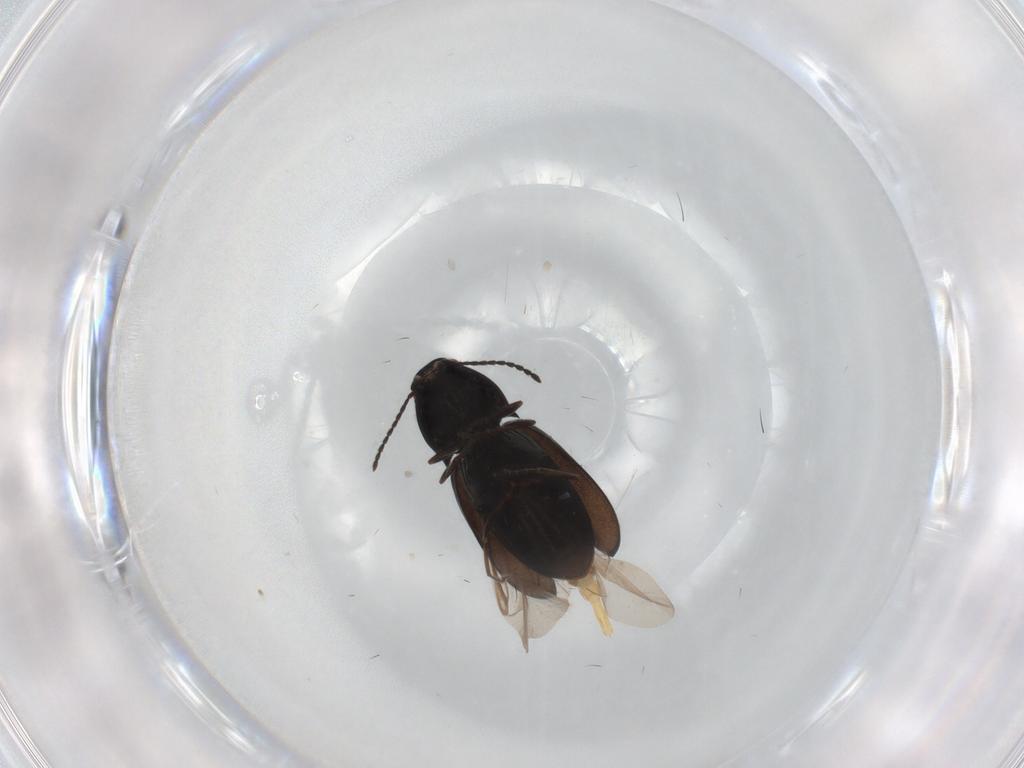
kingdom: Animalia
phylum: Arthropoda
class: Insecta
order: Coleoptera
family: Elateridae
